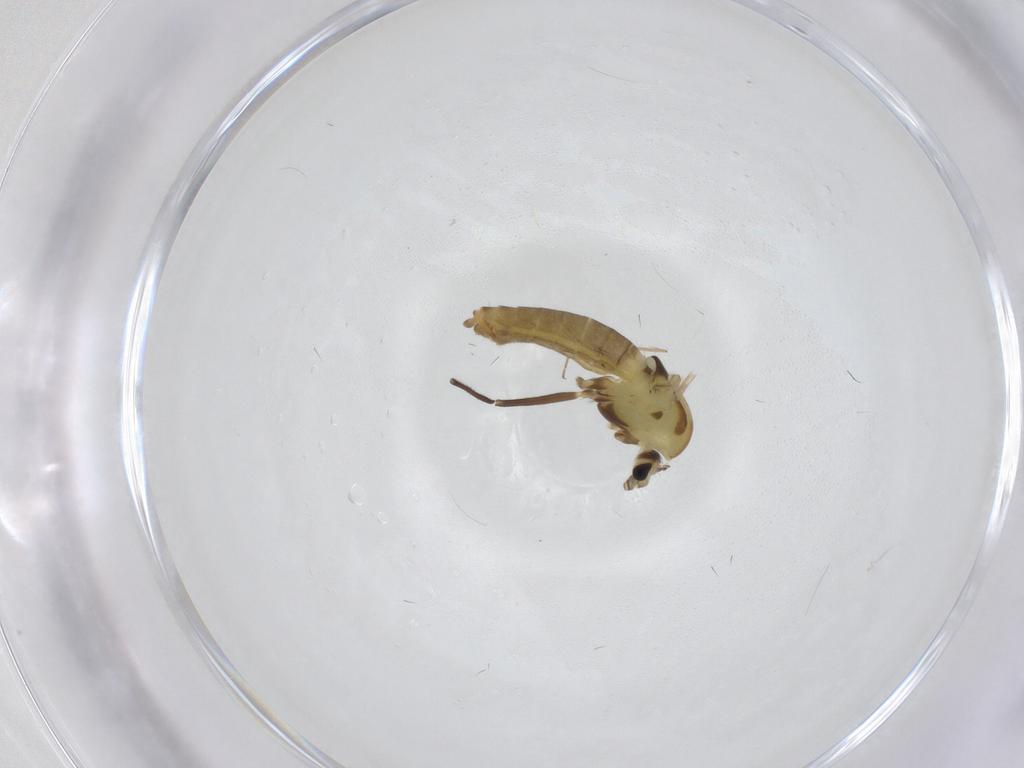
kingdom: Animalia
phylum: Arthropoda
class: Insecta
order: Diptera
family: Chironomidae
